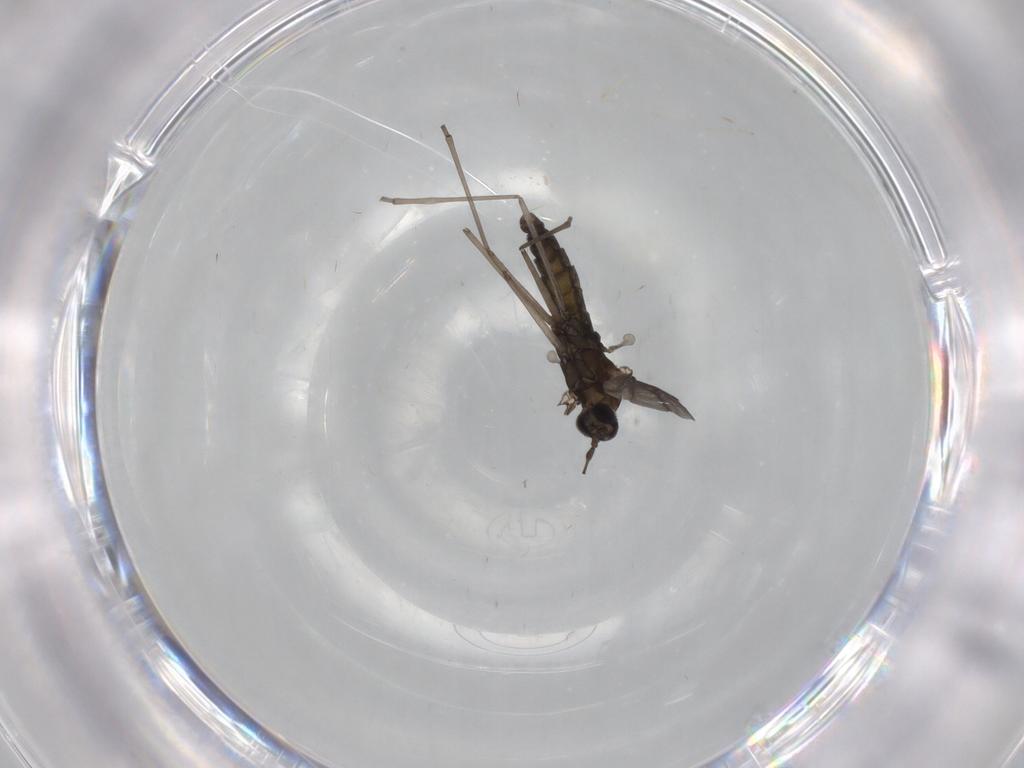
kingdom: Animalia
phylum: Arthropoda
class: Insecta
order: Diptera
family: Cecidomyiidae
